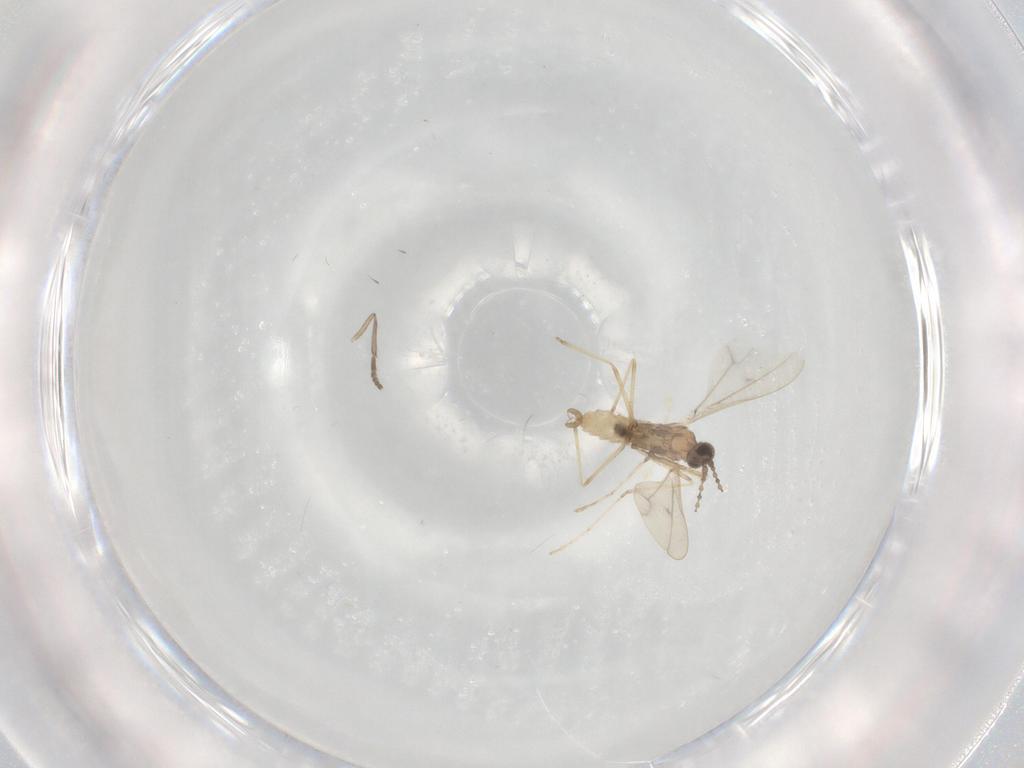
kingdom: Animalia
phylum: Arthropoda
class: Insecta
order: Diptera
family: Cecidomyiidae
